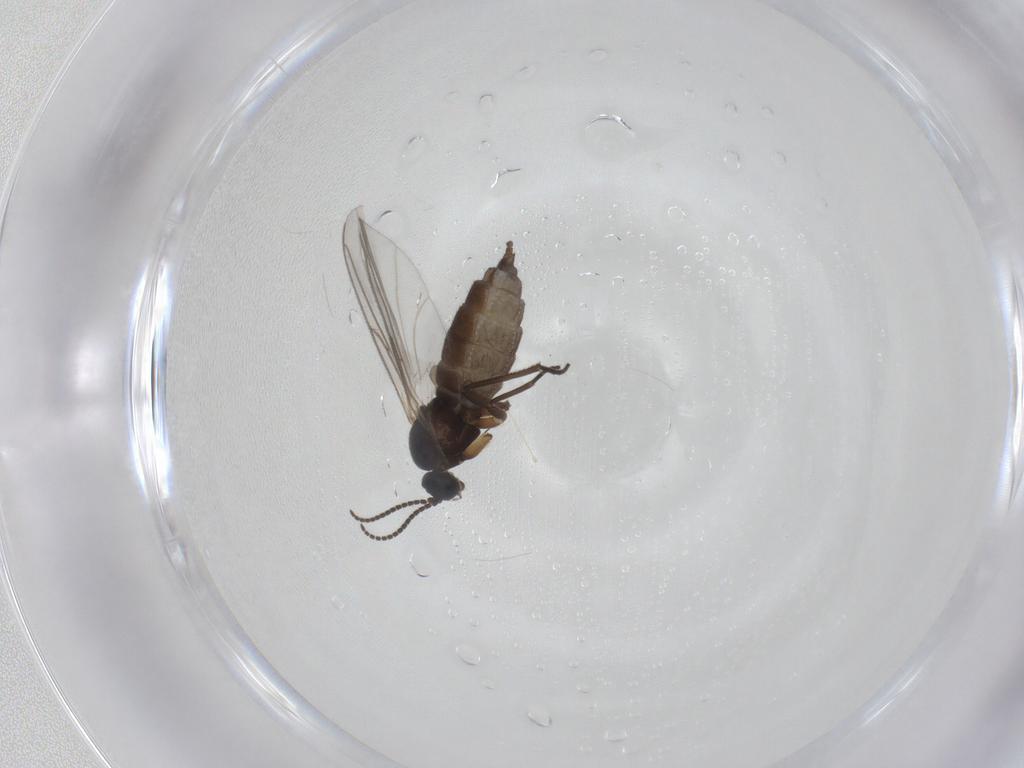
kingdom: Animalia
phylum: Arthropoda
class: Insecta
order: Diptera
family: Sciaridae
